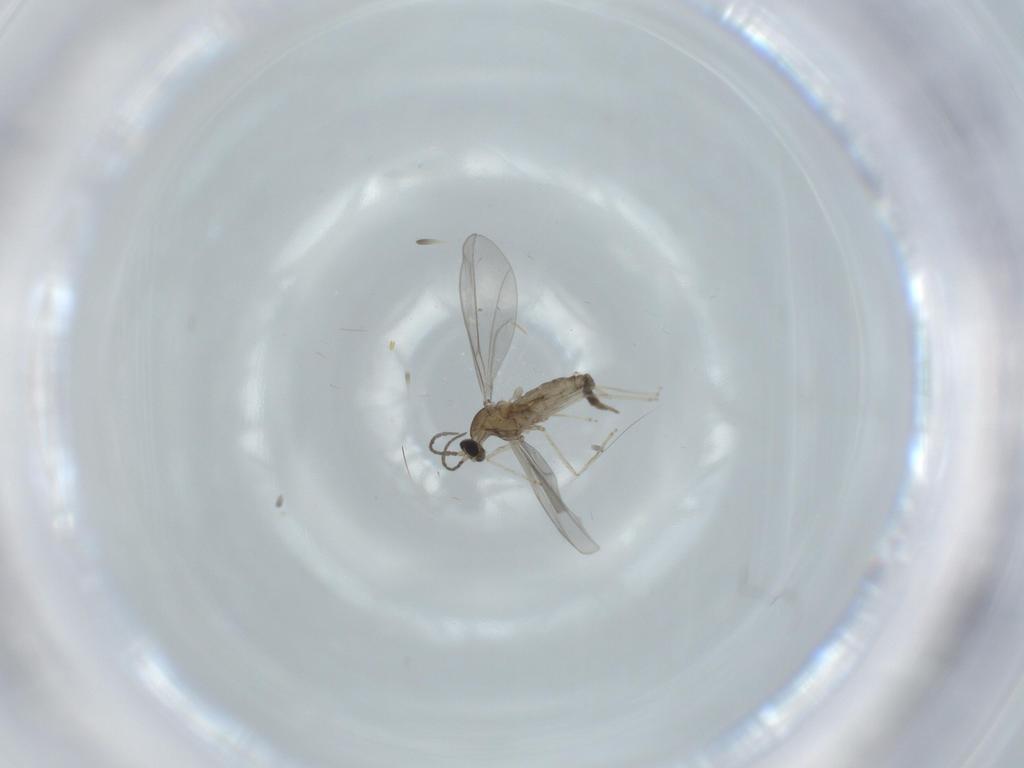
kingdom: Animalia
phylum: Arthropoda
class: Insecta
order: Diptera
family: Cecidomyiidae
